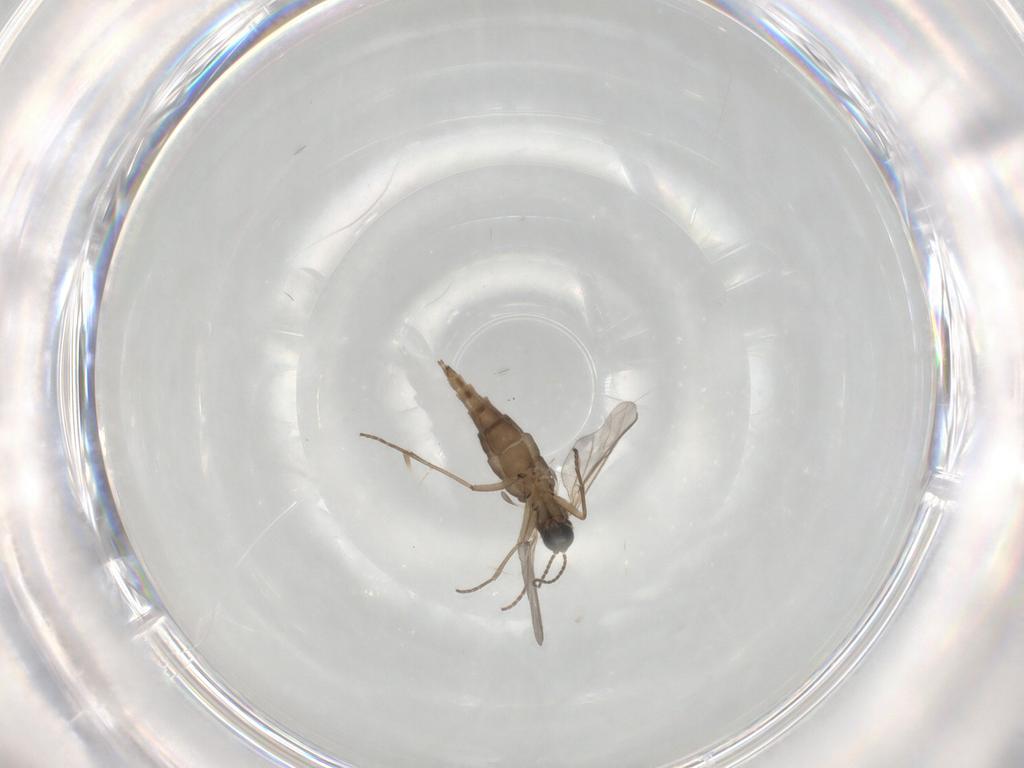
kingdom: Animalia
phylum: Arthropoda
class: Insecta
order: Diptera
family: Sciaridae
